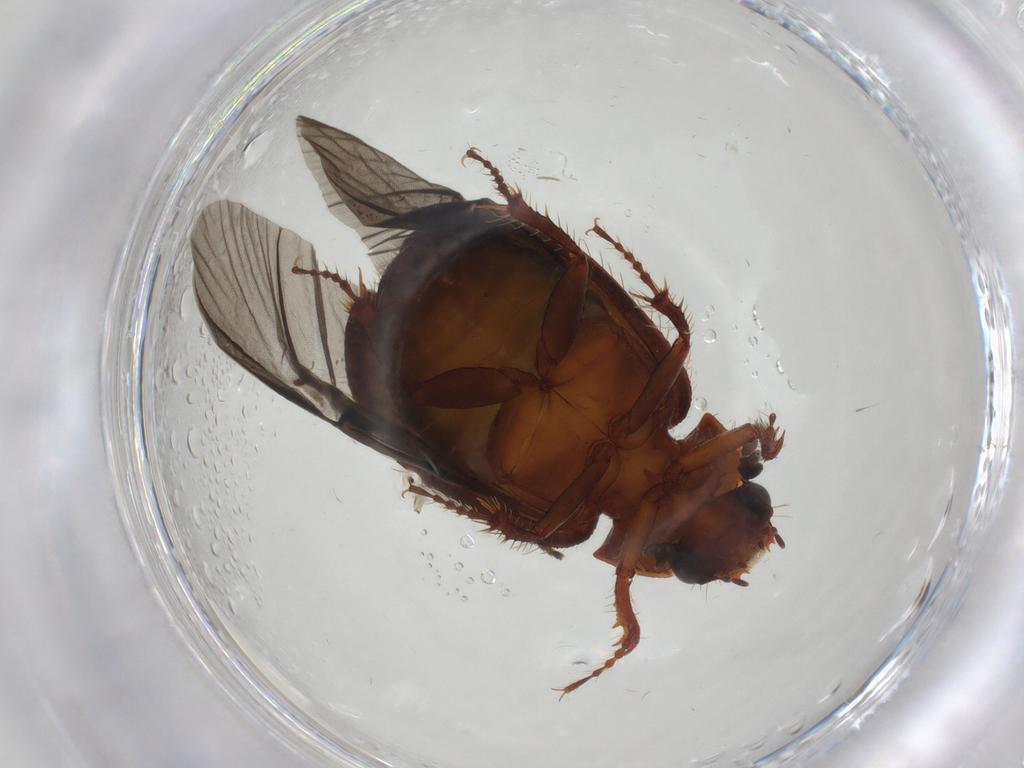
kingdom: Animalia
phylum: Arthropoda
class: Insecta
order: Coleoptera
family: Hybosoridae
